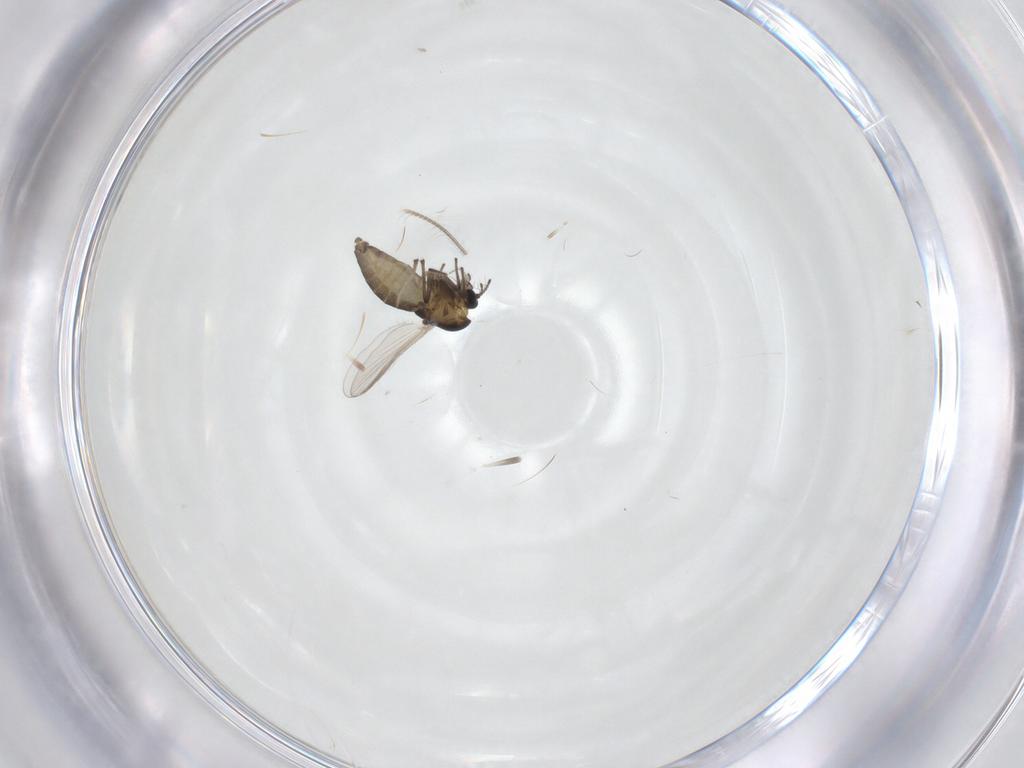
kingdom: Animalia
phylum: Arthropoda
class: Insecta
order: Diptera
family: Chironomidae
